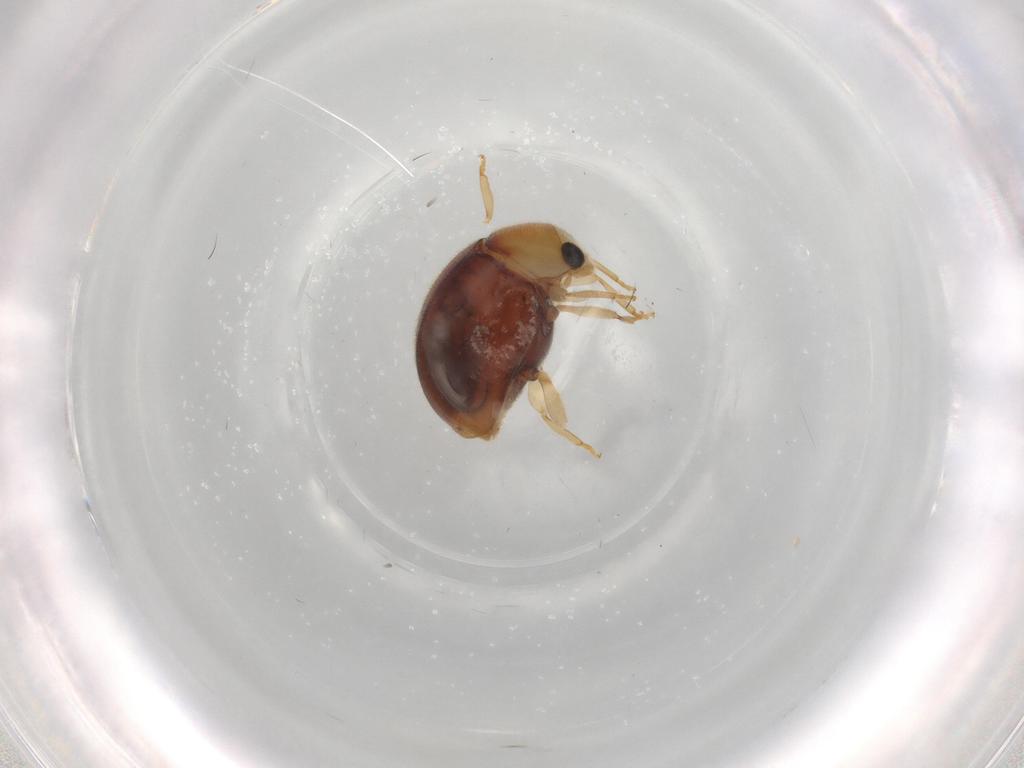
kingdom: Animalia
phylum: Arthropoda
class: Insecta
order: Coleoptera
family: Coccinellidae
